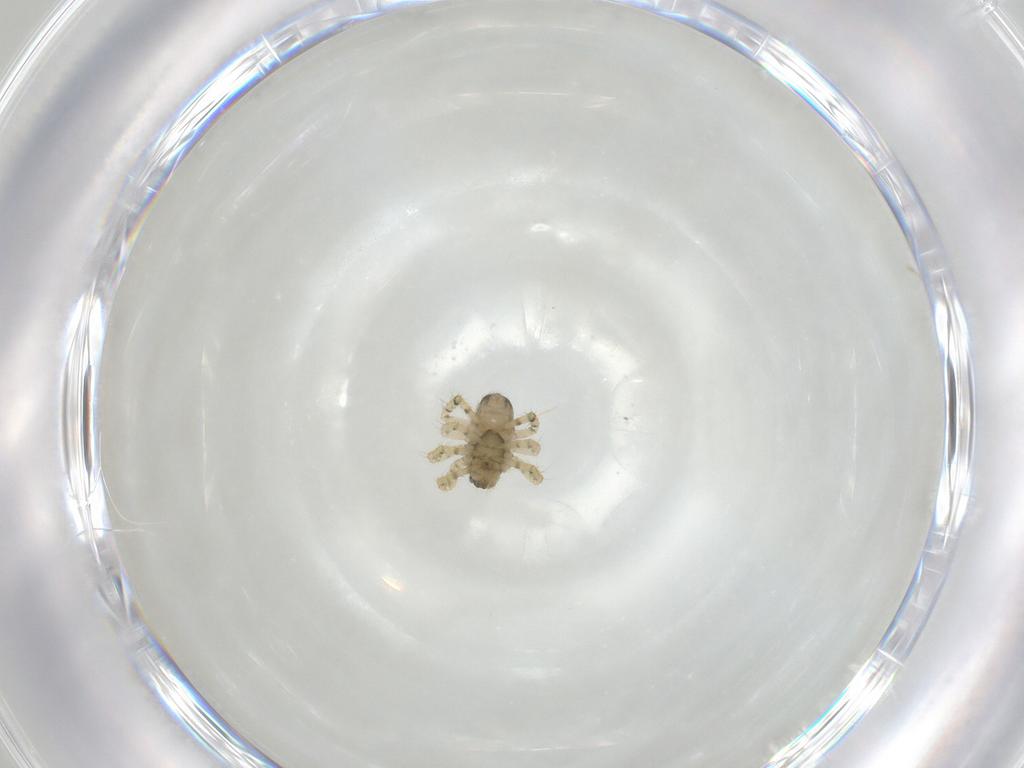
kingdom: Animalia
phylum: Arthropoda
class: Arachnida
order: Araneae
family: Theridiidae
